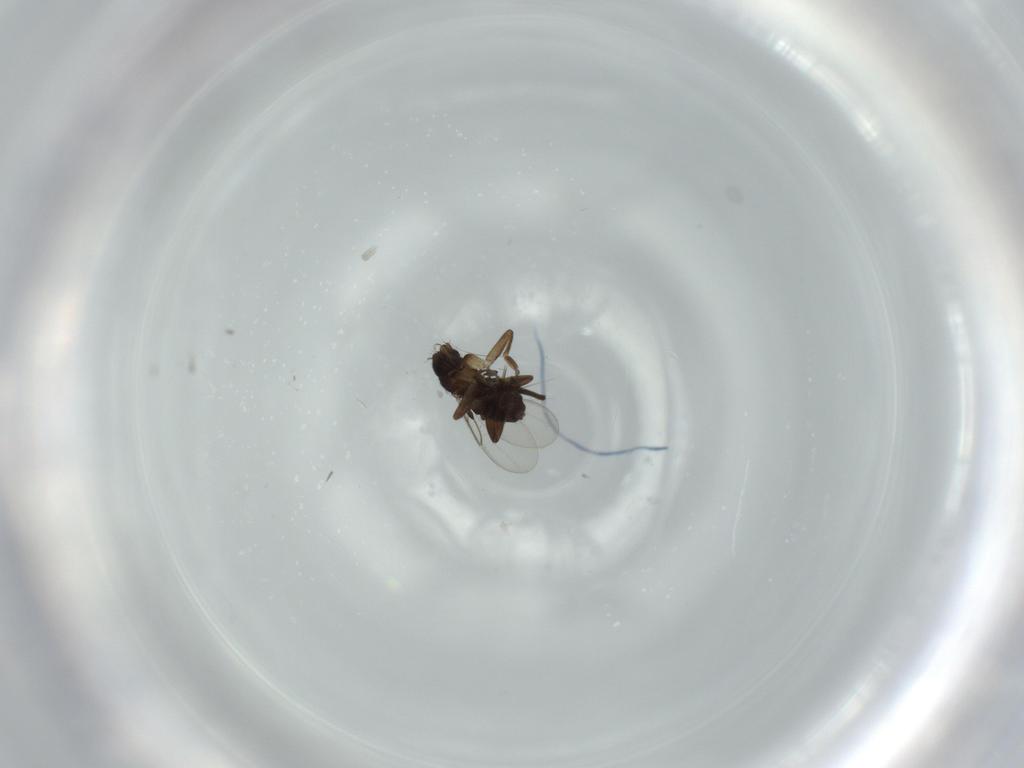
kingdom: Animalia
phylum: Arthropoda
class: Insecta
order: Diptera
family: Phoridae
